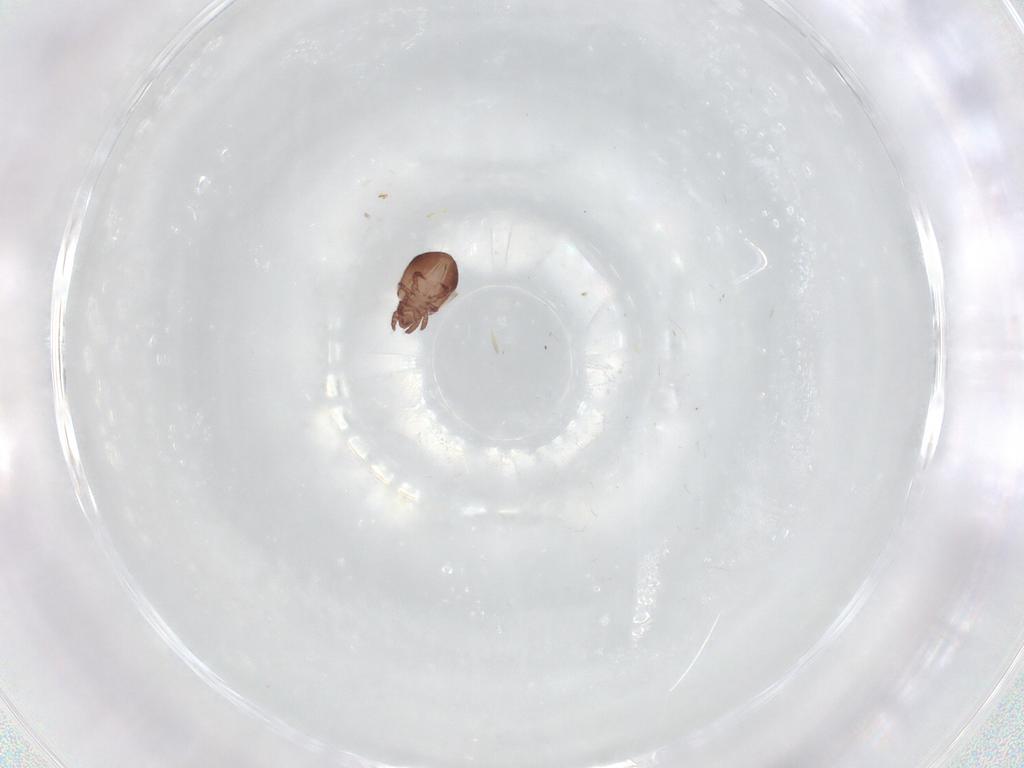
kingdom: Animalia
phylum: Arthropoda
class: Arachnida
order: Sarcoptiformes
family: Trhypochthoniidae
